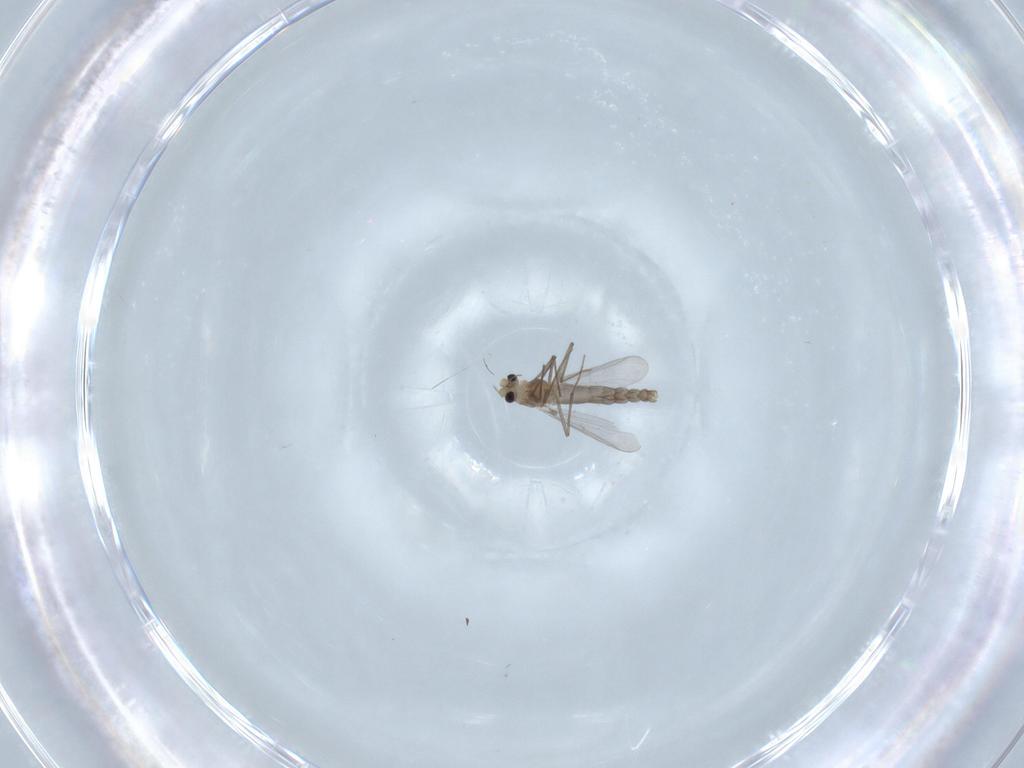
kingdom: Animalia
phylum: Arthropoda
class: Insecta
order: Diptera
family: Chironomidae
